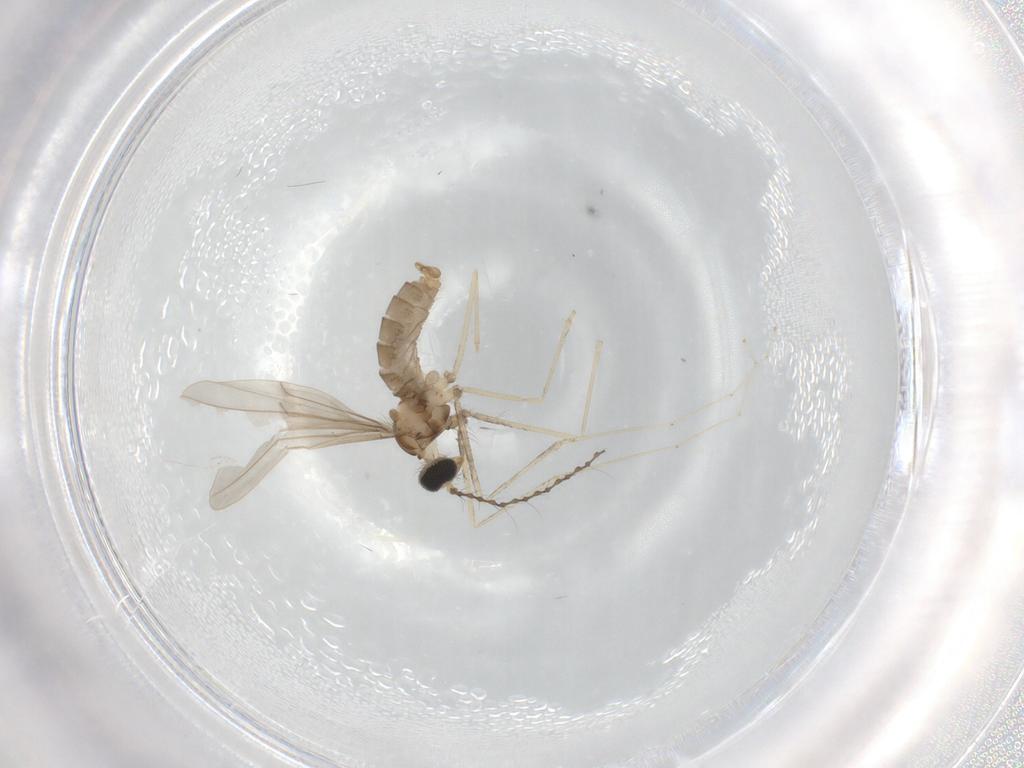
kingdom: Animalia
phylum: Arthropoda
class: Insecta
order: Diptera
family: Cecidomyiidae
